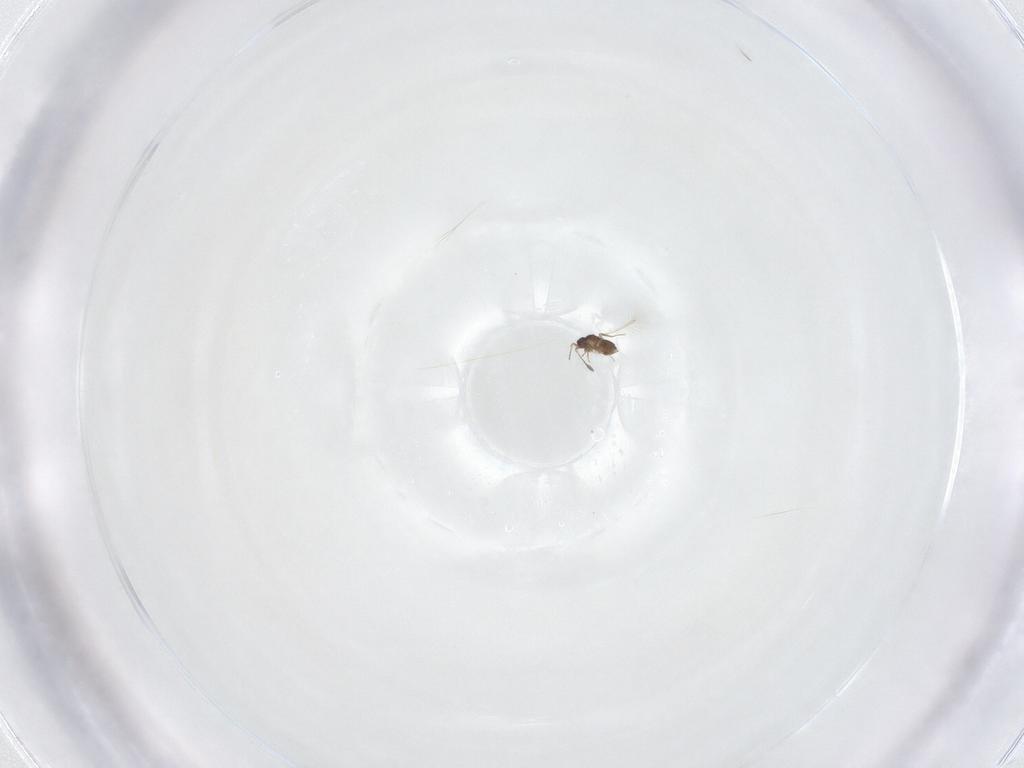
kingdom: Animalia
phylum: Arthropoda
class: Insecta
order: Hymenoptera
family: Mymaridae
